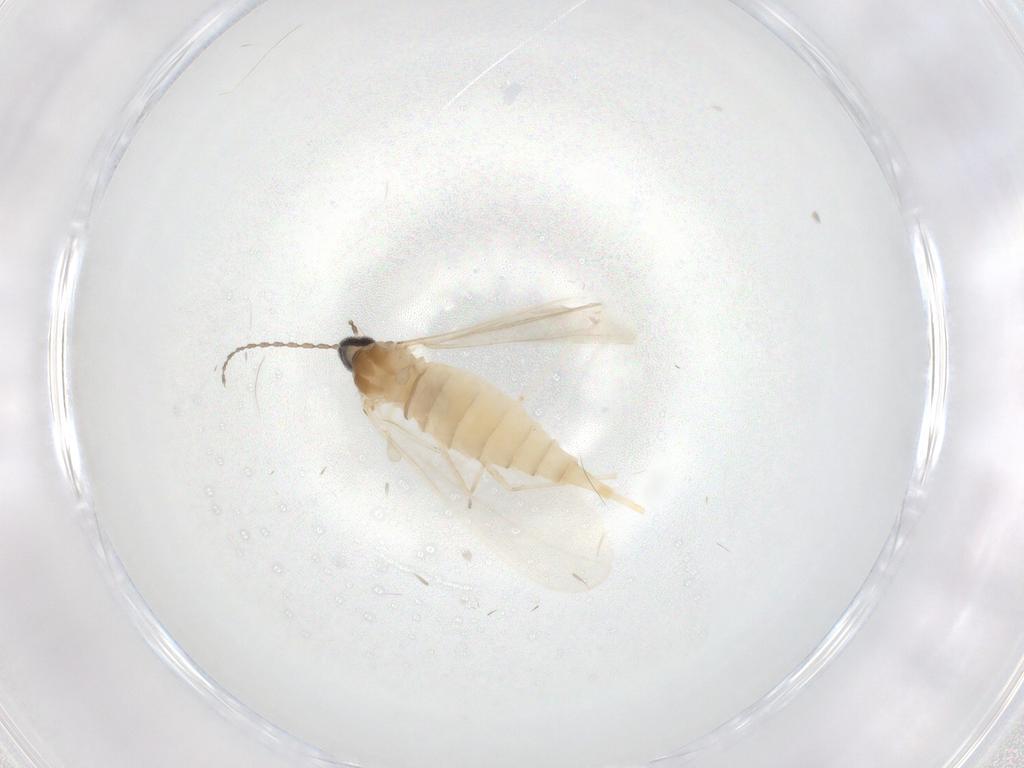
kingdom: Animalia
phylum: Arthropoda
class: Insecta
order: Diptera
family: Cecidomyiidae
